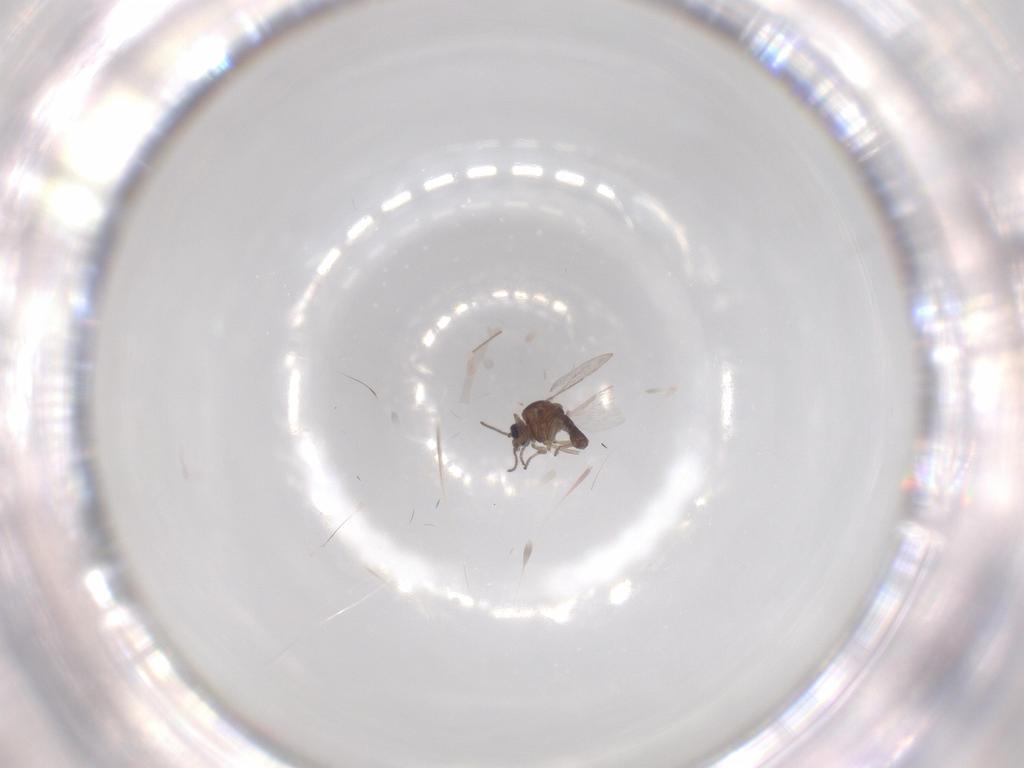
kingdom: Animalia
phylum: Arthropoda
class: Insecta
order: Diptera
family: Ceratopogonidae
